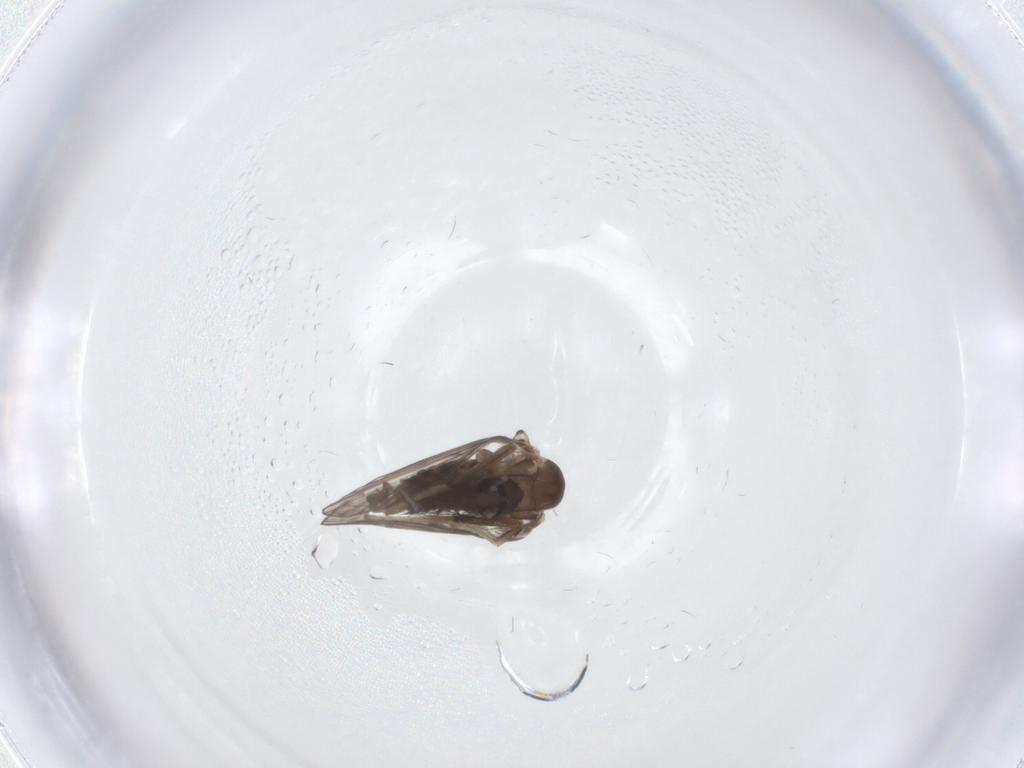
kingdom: Animalia
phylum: Arthropoda
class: Insecta
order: Diptera
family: Psychodidae
